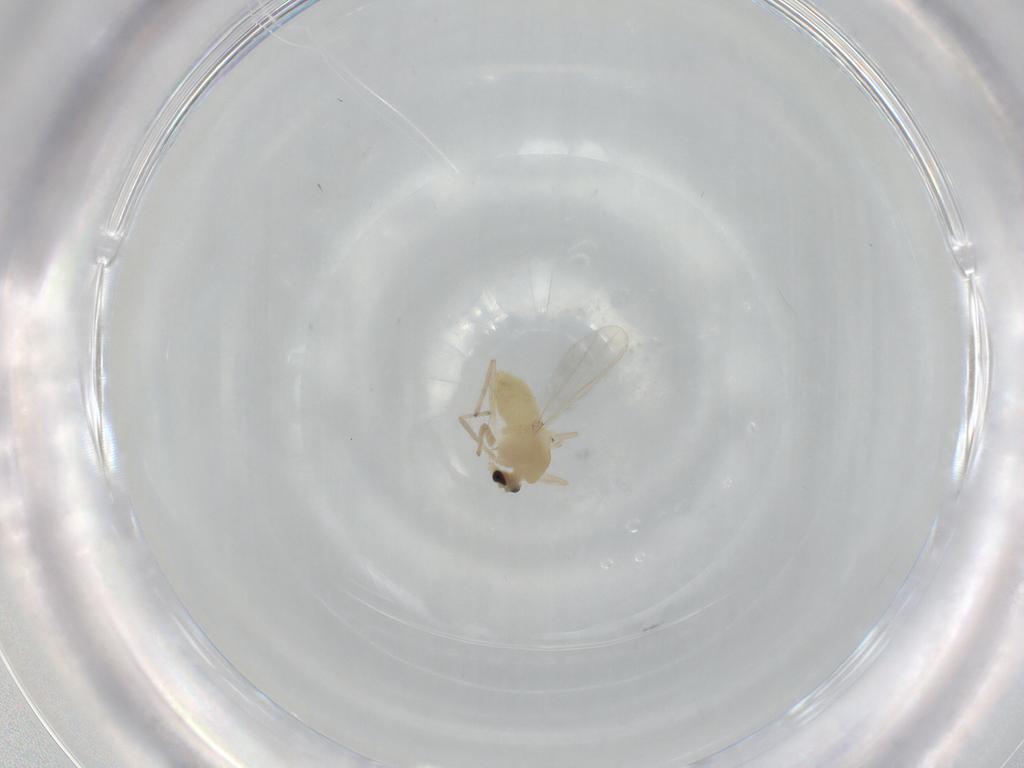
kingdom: Animalia
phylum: Arthropoda
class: Insecta
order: Diptera
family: Chironomidae
